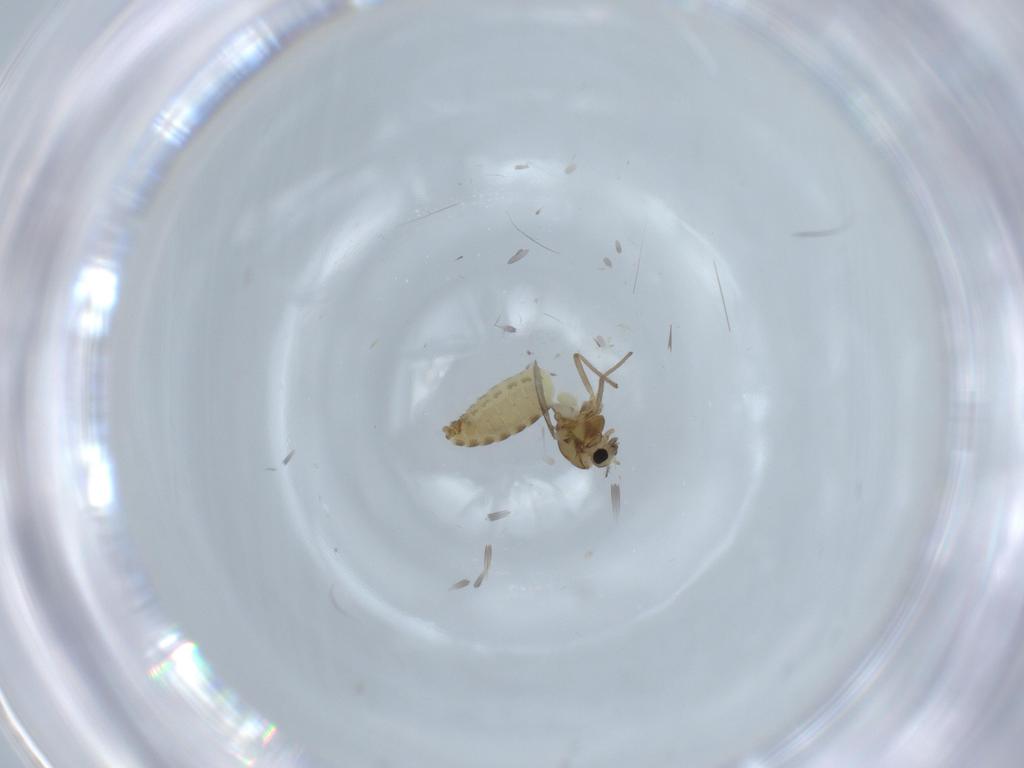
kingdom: Animalia
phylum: Arthropoda
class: Insecta
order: Diptera
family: Chironomidae
